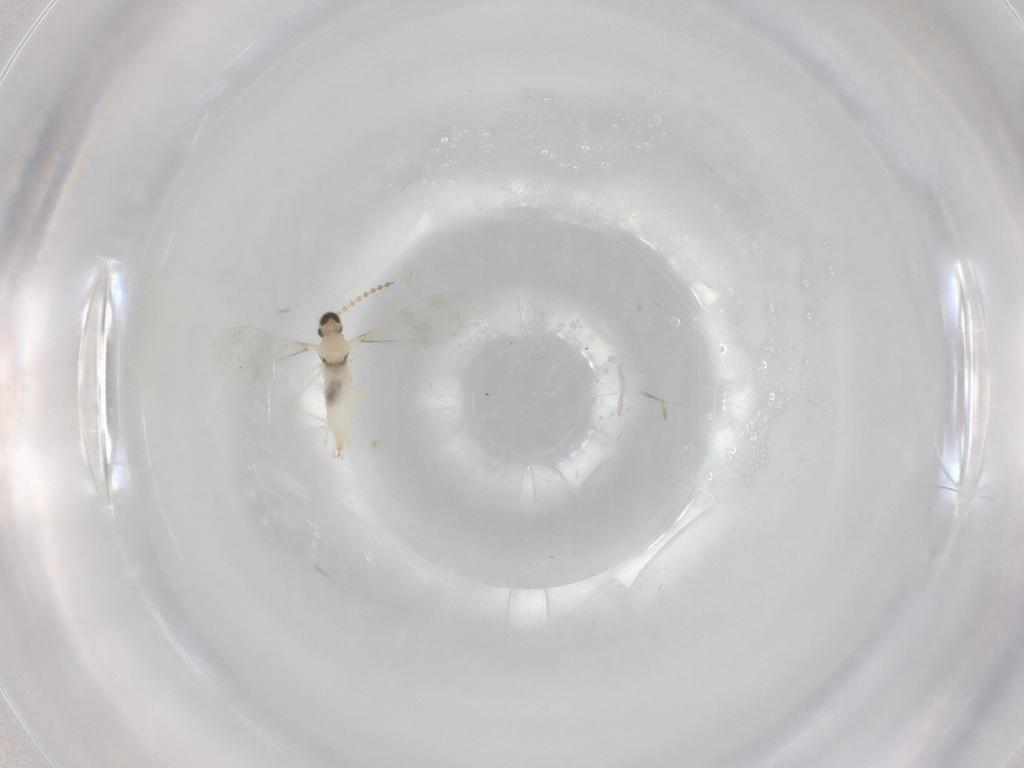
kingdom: Animalia
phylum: Arthropoda
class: Insecta
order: Diptera
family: Cecidomyiidae
